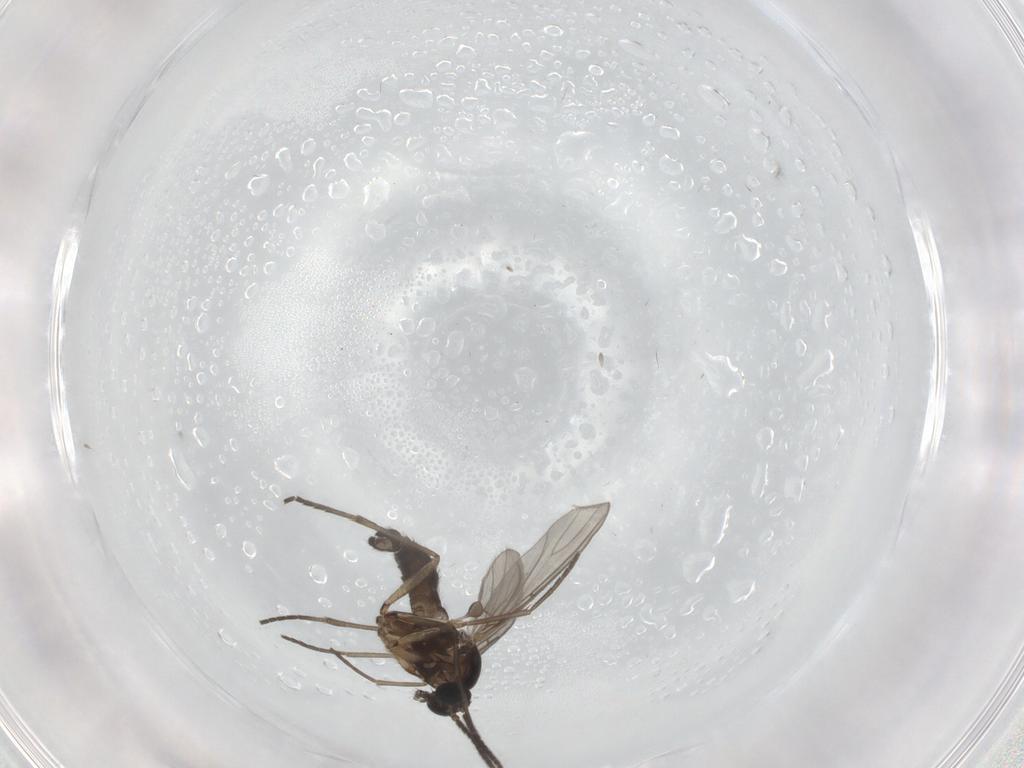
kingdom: Animalia
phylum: Arthropoda
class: Insecta
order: Diptera
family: Sciaridae
